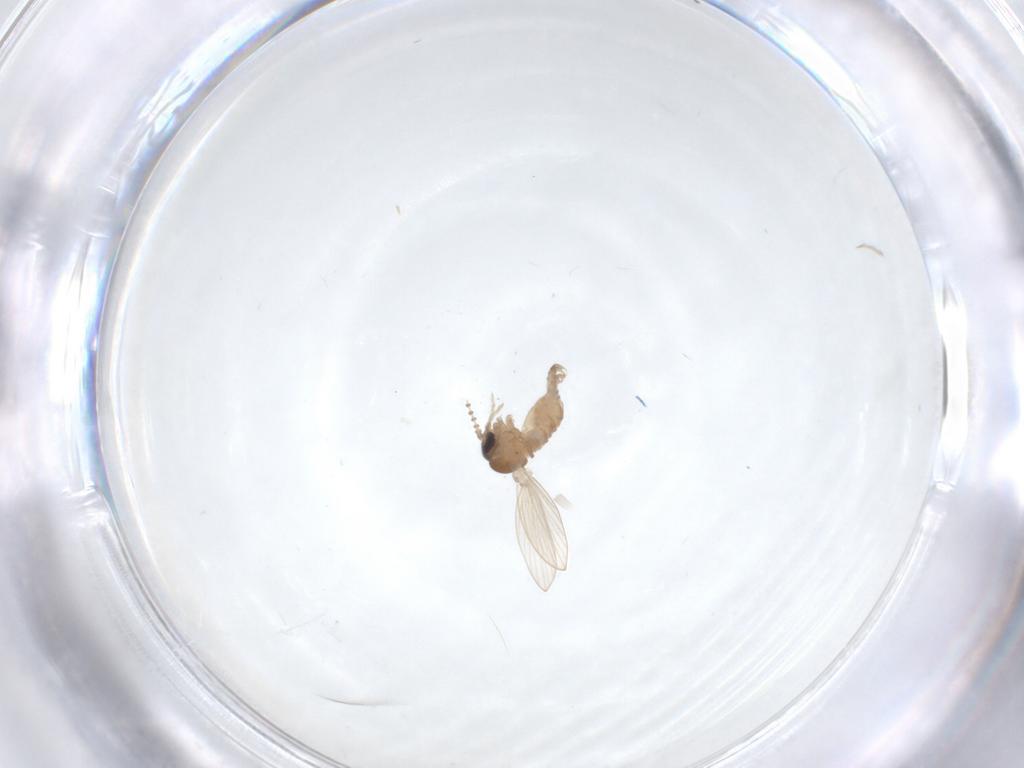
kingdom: Animalia
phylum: Arthropoda
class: Insecta
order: Diptera
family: Psychodidae
